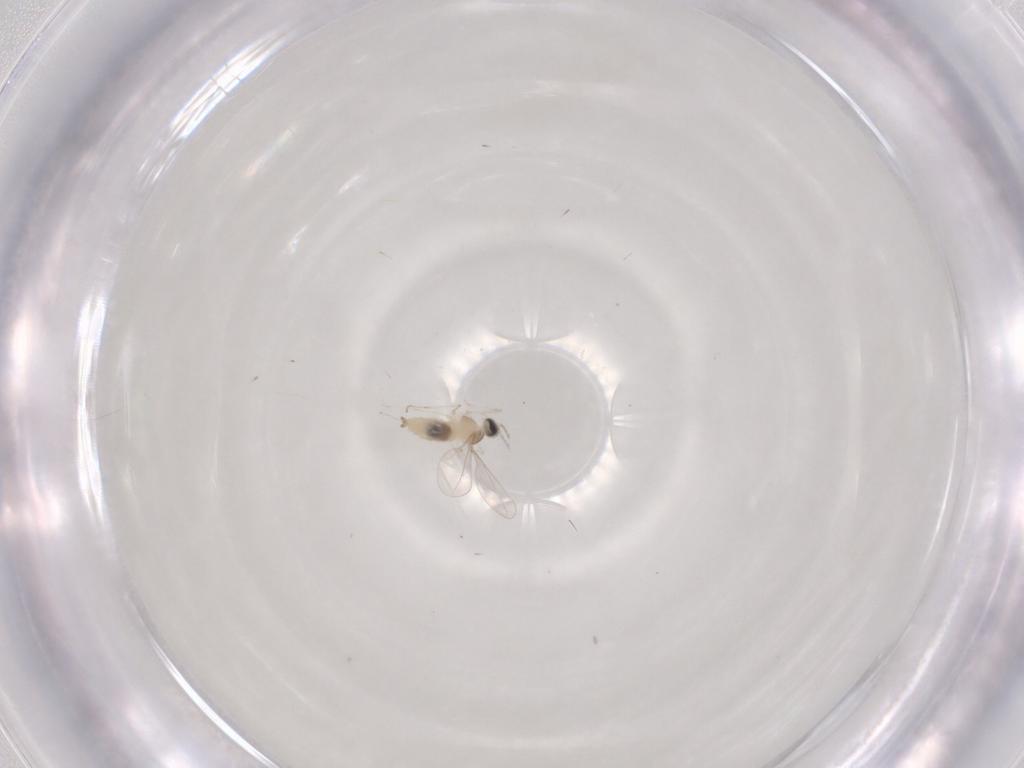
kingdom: Animalia
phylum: Arthropoda
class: Insecta
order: Diptera
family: Cecidomyiidae
